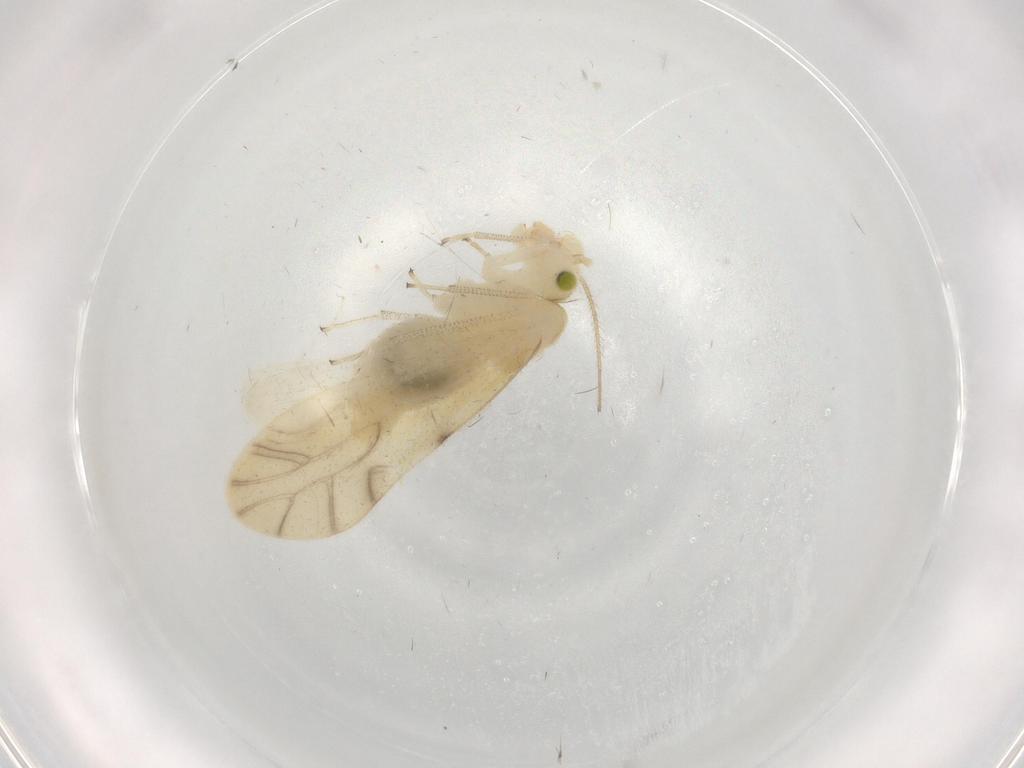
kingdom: Animalia
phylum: Arthropoda
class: Insecta
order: Psocodea
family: Caeciliusidae
